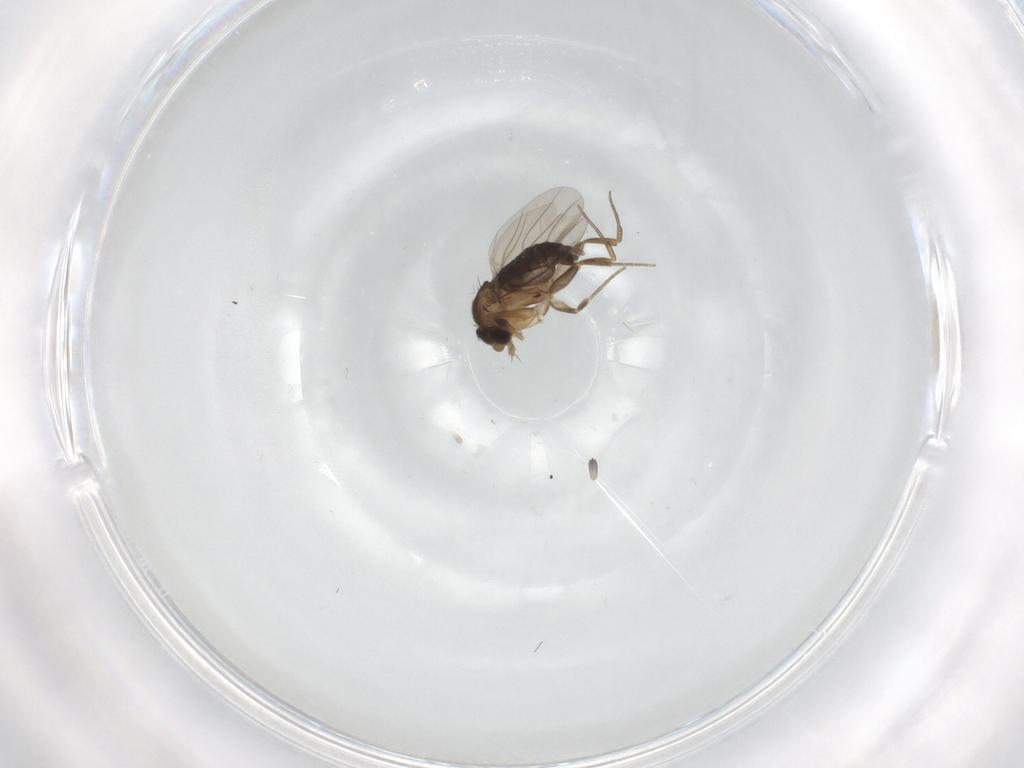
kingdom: Animalia
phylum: Arthropoda
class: Insecta
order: Diptera
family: Phoridae
